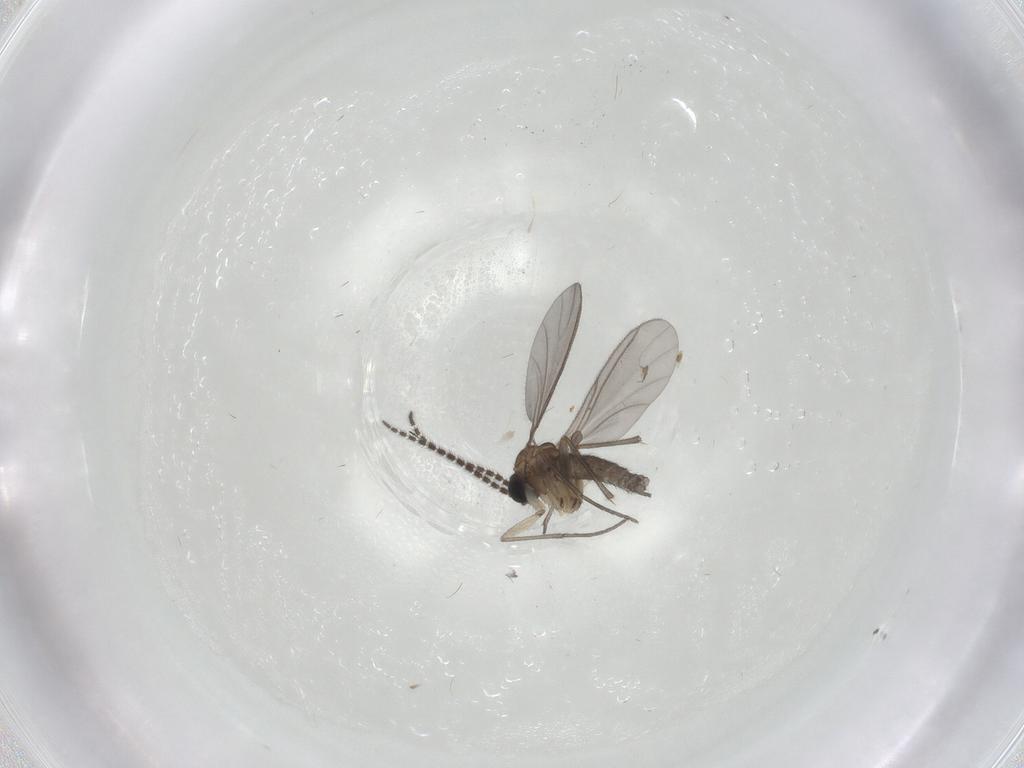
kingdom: Animalia
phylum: Arthropoda
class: Insecta
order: Diptera
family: Sciaridae
